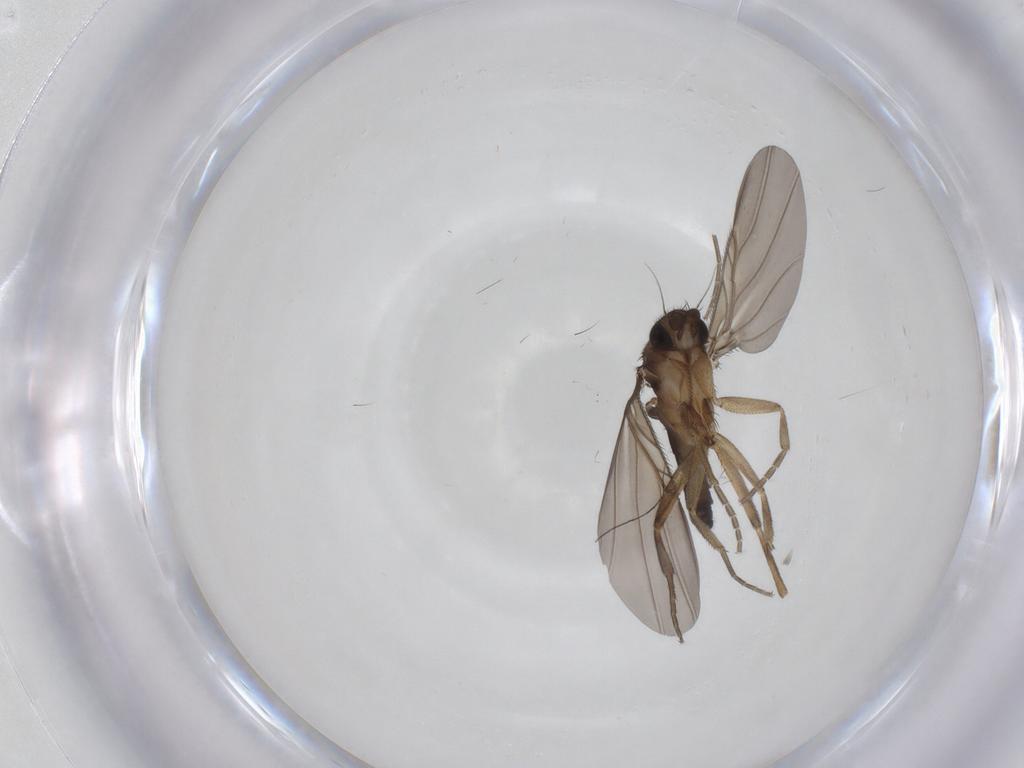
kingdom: Animalia
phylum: Arthropoda
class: Insecta
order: Diptera
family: Phoridae
